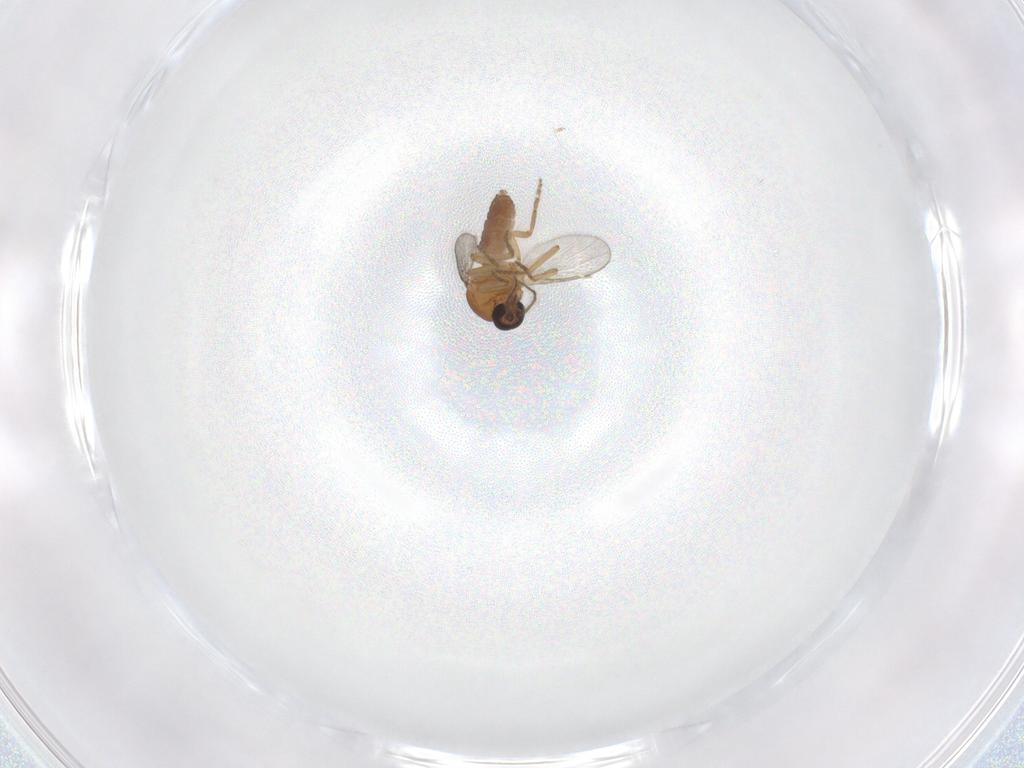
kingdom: Animalia
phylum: Arthropoda
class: Insecta
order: Diptera
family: Chironomidae
